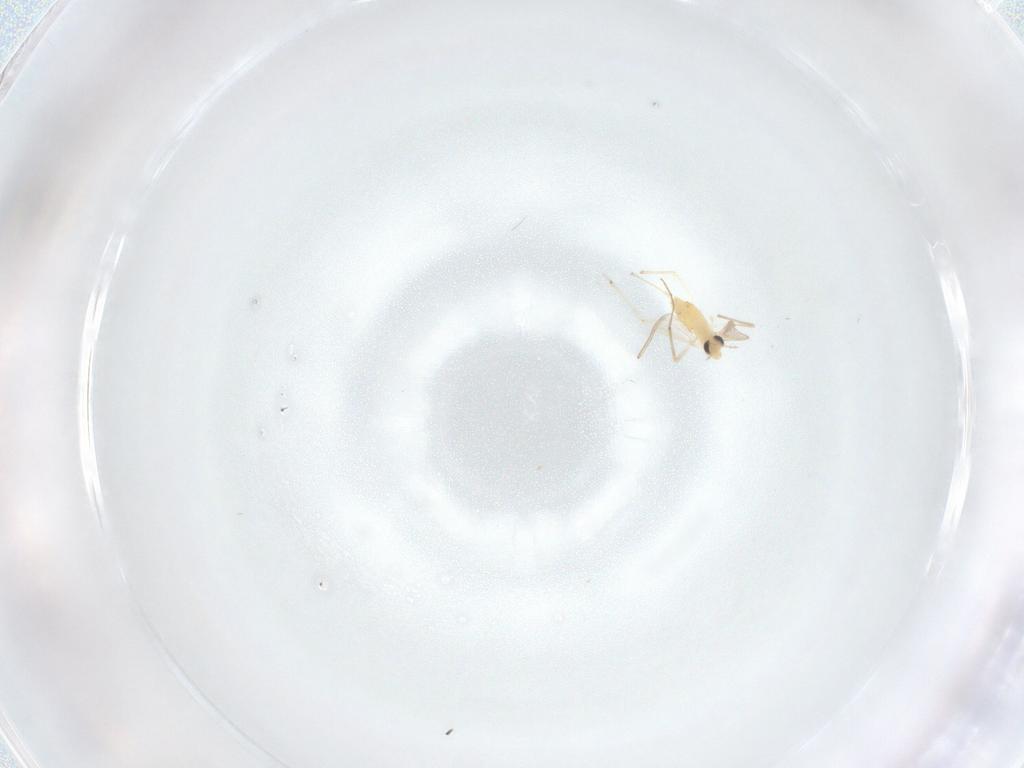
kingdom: Animalia
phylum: Arthropoda
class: Insecta
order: Diptera
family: Chironomidae
